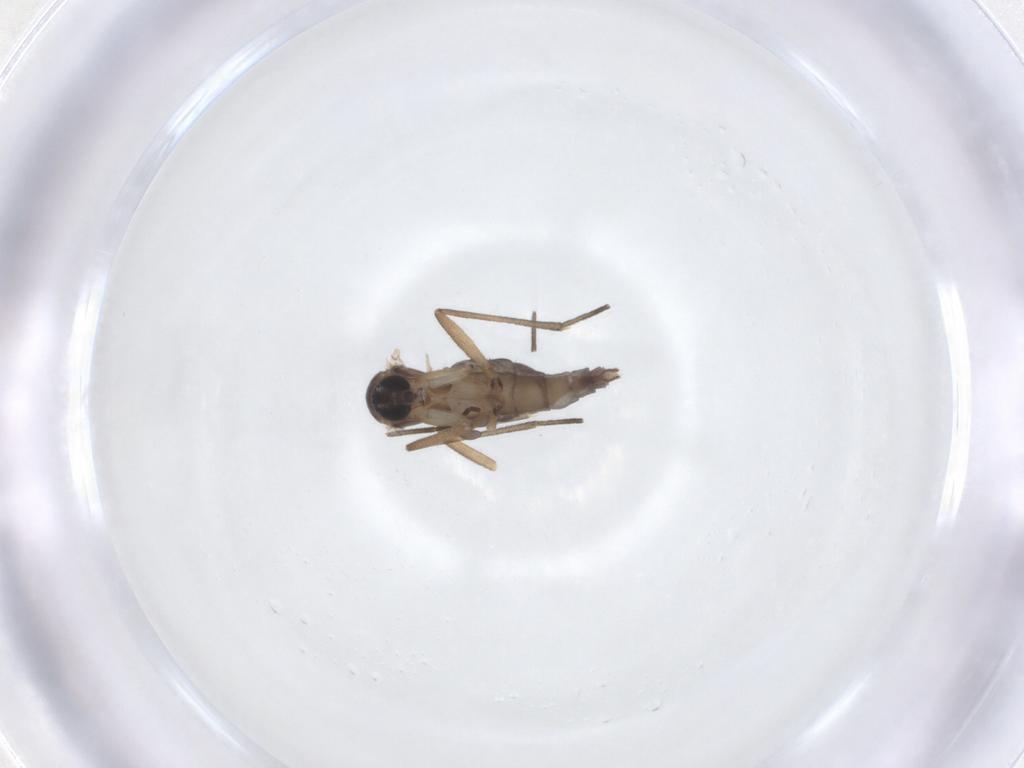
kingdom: Animalia
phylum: Arthropoda
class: Insecta
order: Diptera
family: Sciaridae
